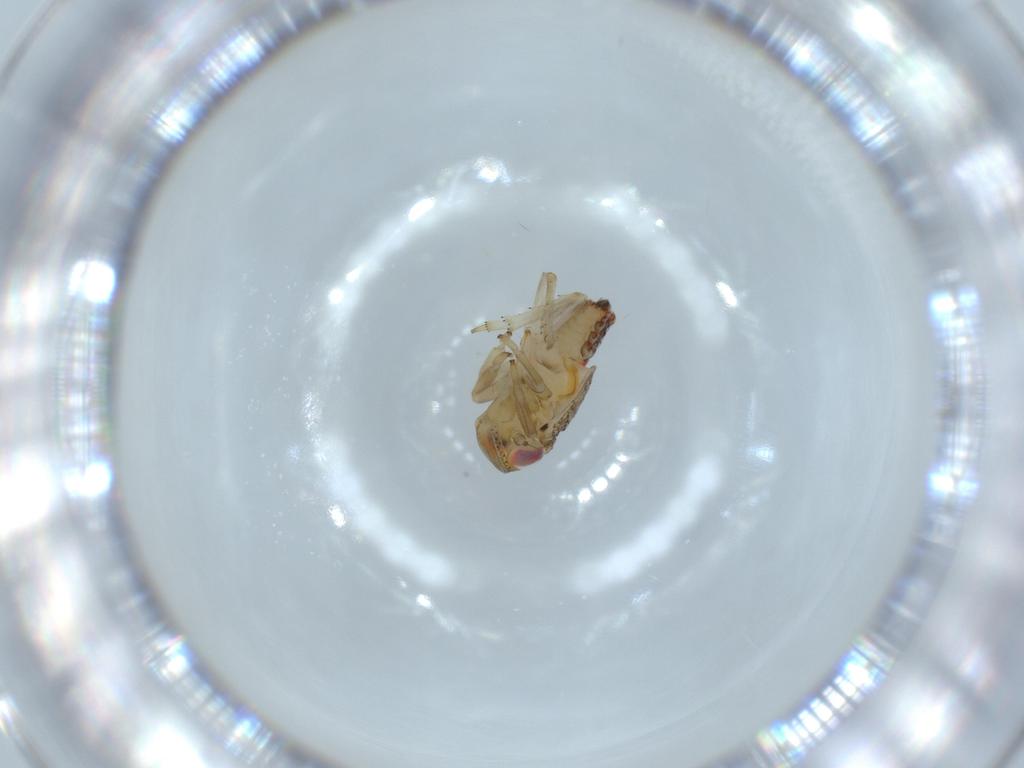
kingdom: Animalia
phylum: Arthropoda
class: Insecta
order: Hemiptera
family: Issidae
